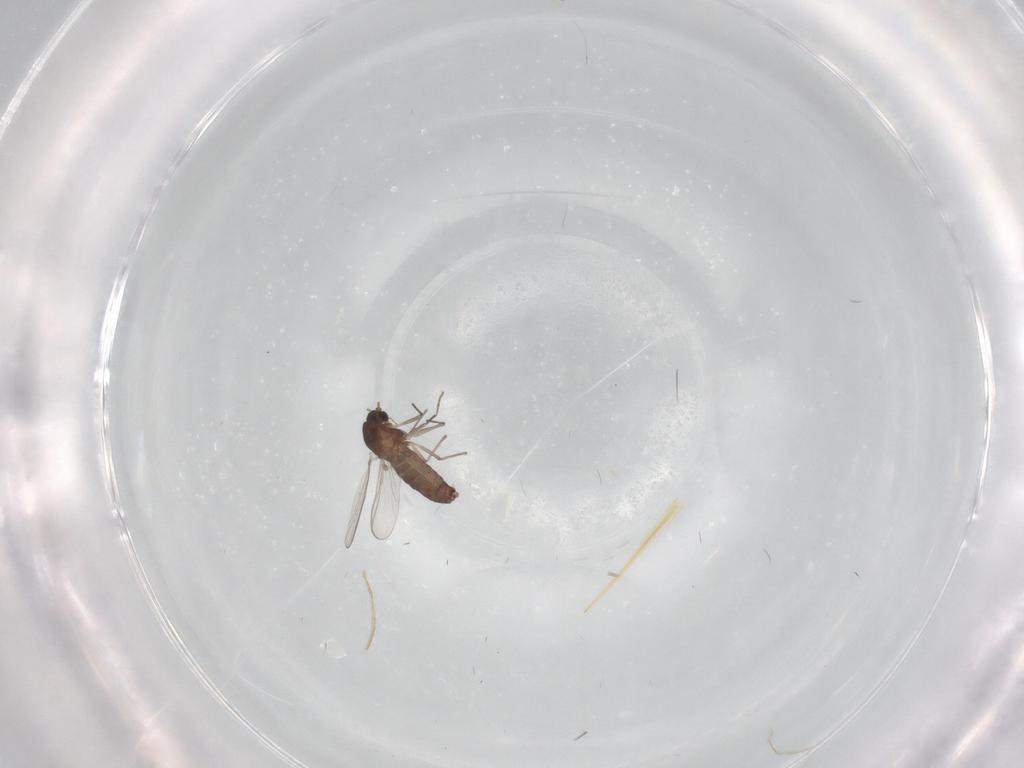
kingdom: Animalia
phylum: Arthropoda
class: Insecta
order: Diptera
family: Chironomidae
